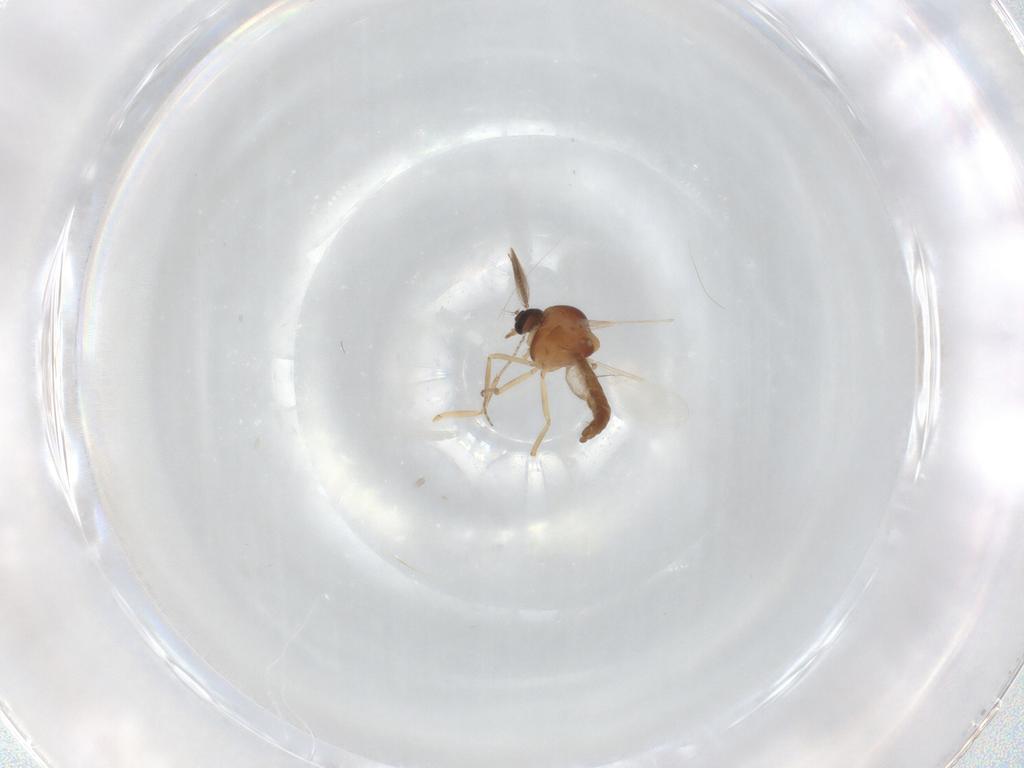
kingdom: Animalia
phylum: Arthropoda
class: Insecta
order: Diptera
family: Ceratopogonidae
